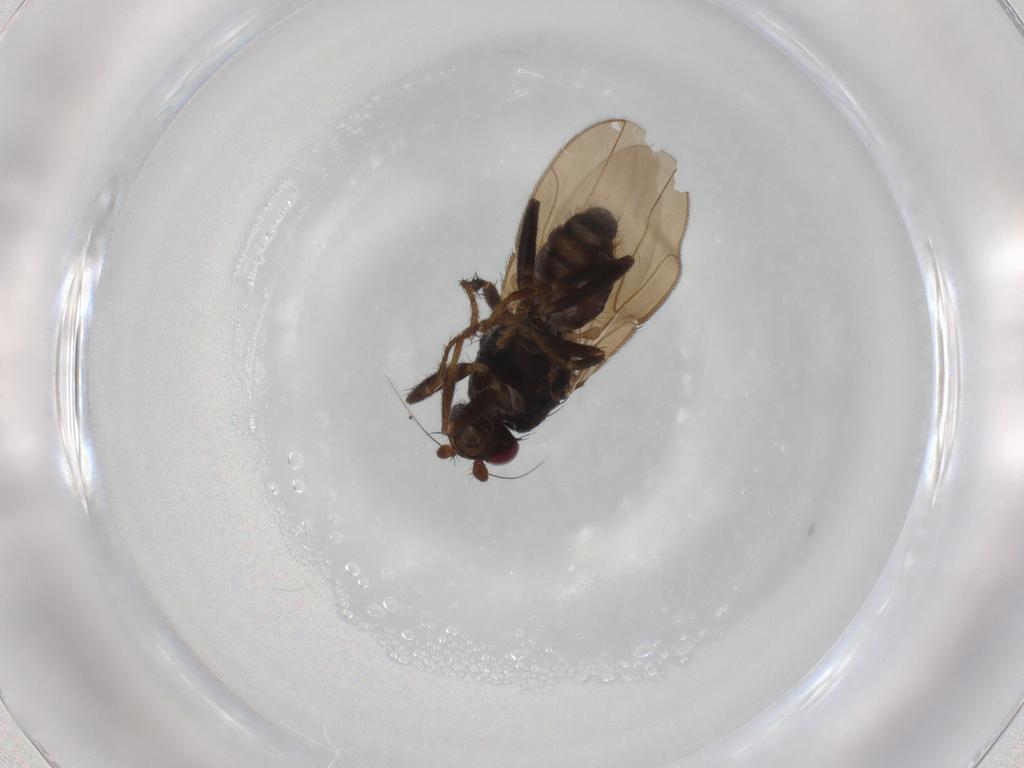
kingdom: Animalia
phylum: Arthropoda
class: Insecta
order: Diptera
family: Sphaeroceridae
